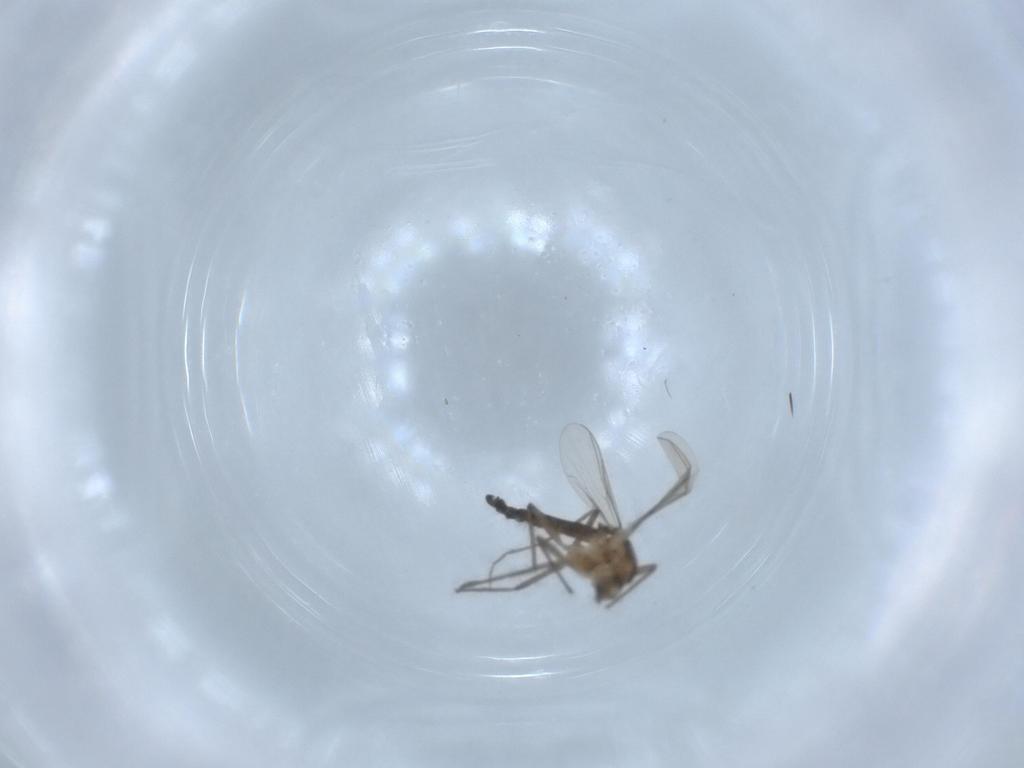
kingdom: Animalia
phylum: Arthropoda
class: Insecta
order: Diptera
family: Chironomidae
